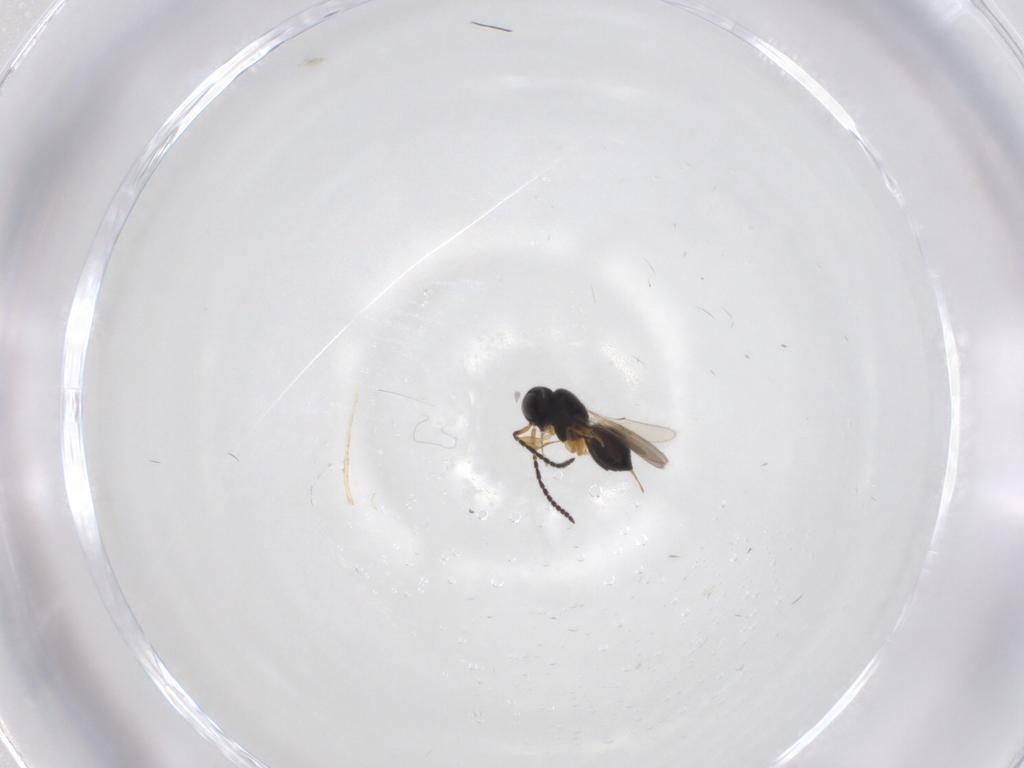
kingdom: Animalia
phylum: Arthropoda
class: Insecta
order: Hymenoptera
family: Scelionidae
